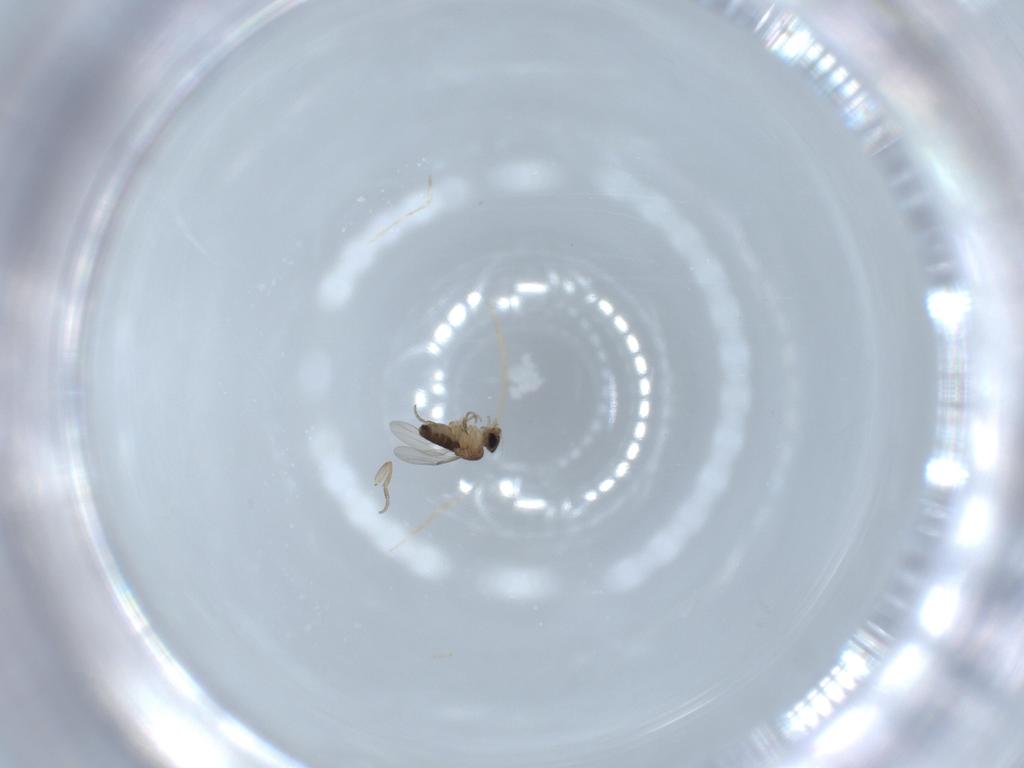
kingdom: Animalia
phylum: Arthropoda
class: Insecta
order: Diptera
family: Phoridae
